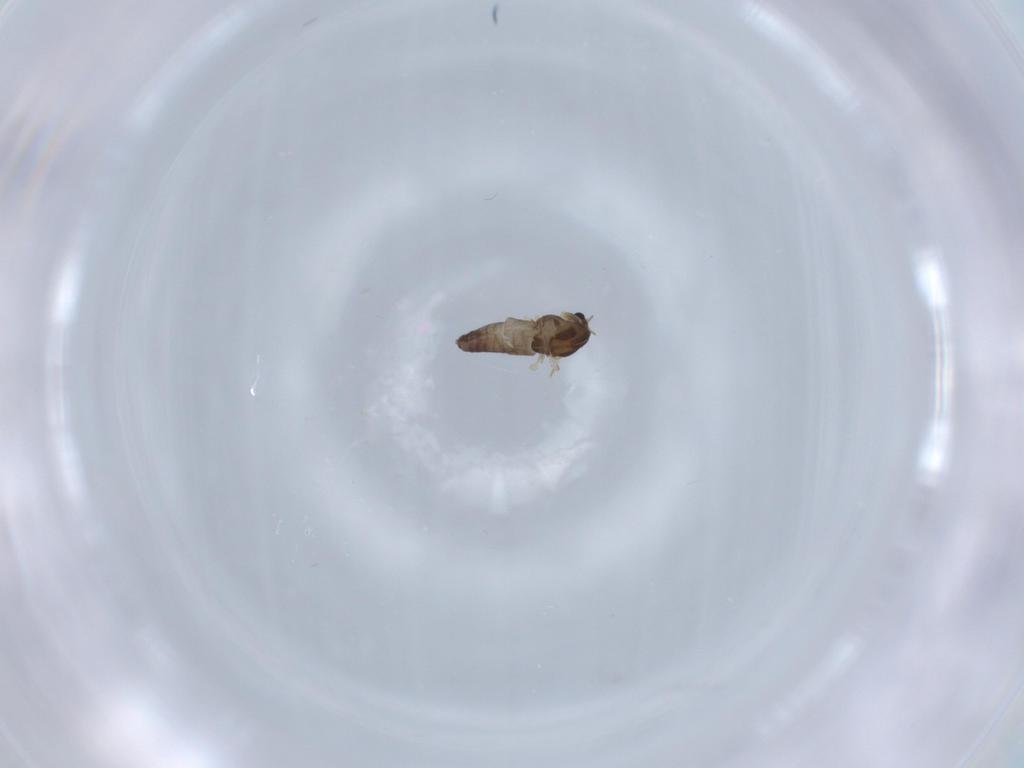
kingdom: Animalia
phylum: Arthropoda
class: Insecta
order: Diptera
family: Chironomidae
